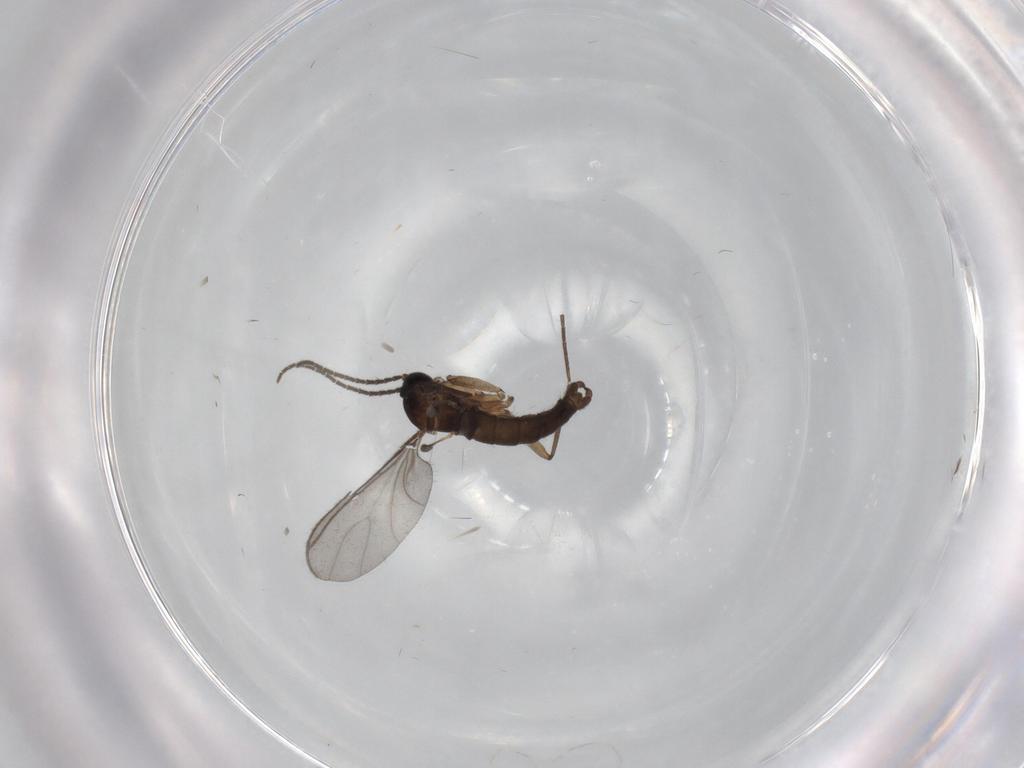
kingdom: Animalia
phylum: Arthropoda
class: Insecta
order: Diptera
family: Sciaridae
